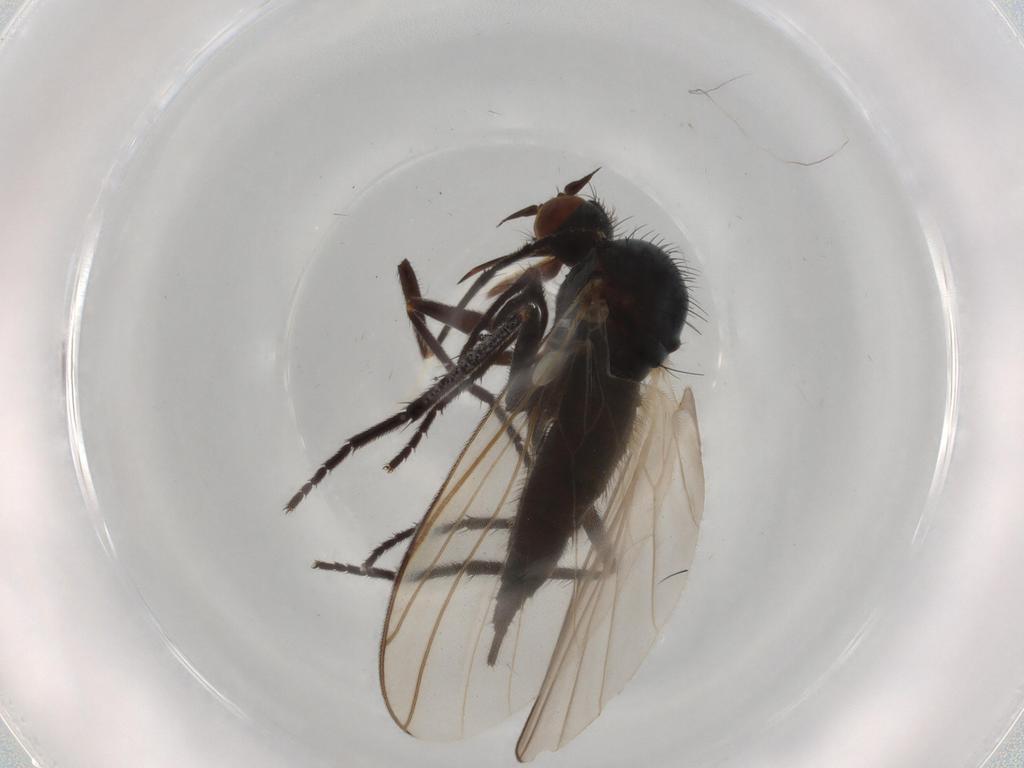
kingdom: Animalia
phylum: Arthropoda
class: Insecta
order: Diptera
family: Empididae
